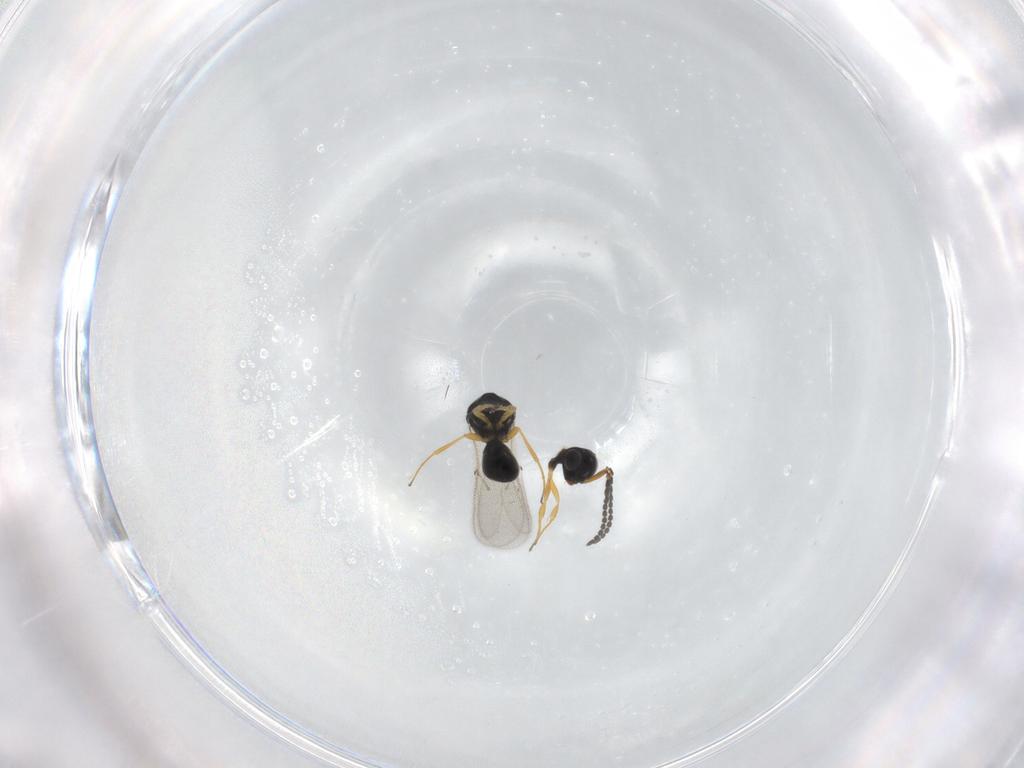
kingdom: Animalia
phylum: Arthropoda
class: Insecta
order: Hymenoptera
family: Scelionidae
